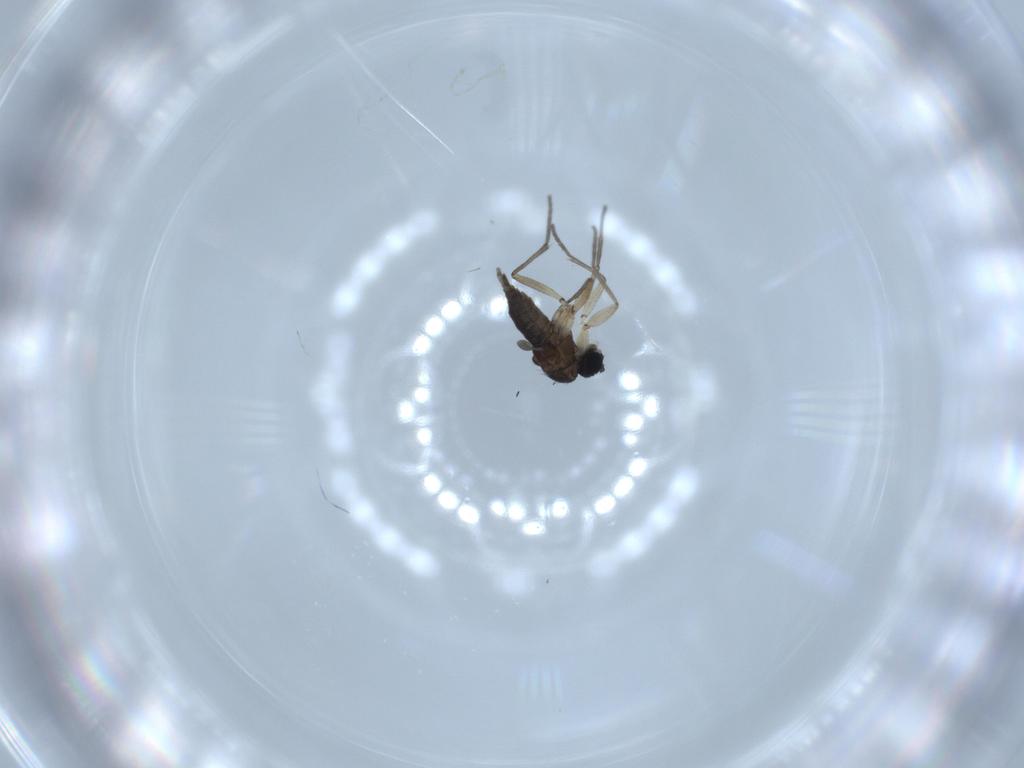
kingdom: Animalia
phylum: Arthropoda
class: Insecta
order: Diptera
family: Sciaridae
